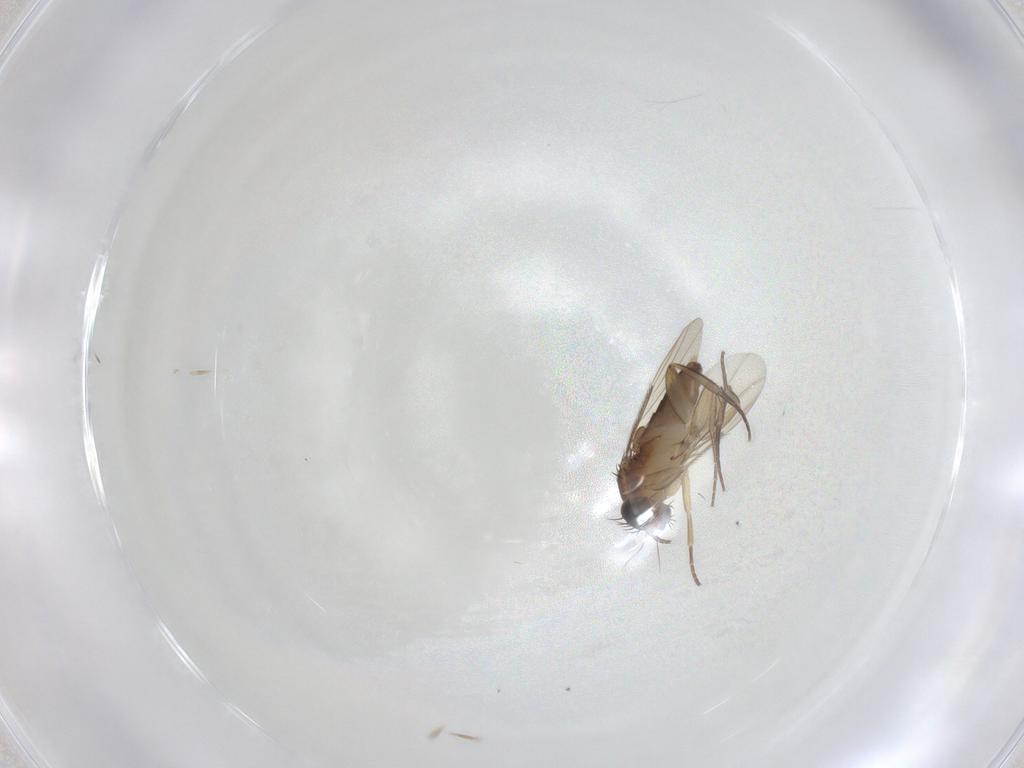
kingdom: Animalia
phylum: Arthropoda
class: Insecta
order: Diptera
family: Phoridae
